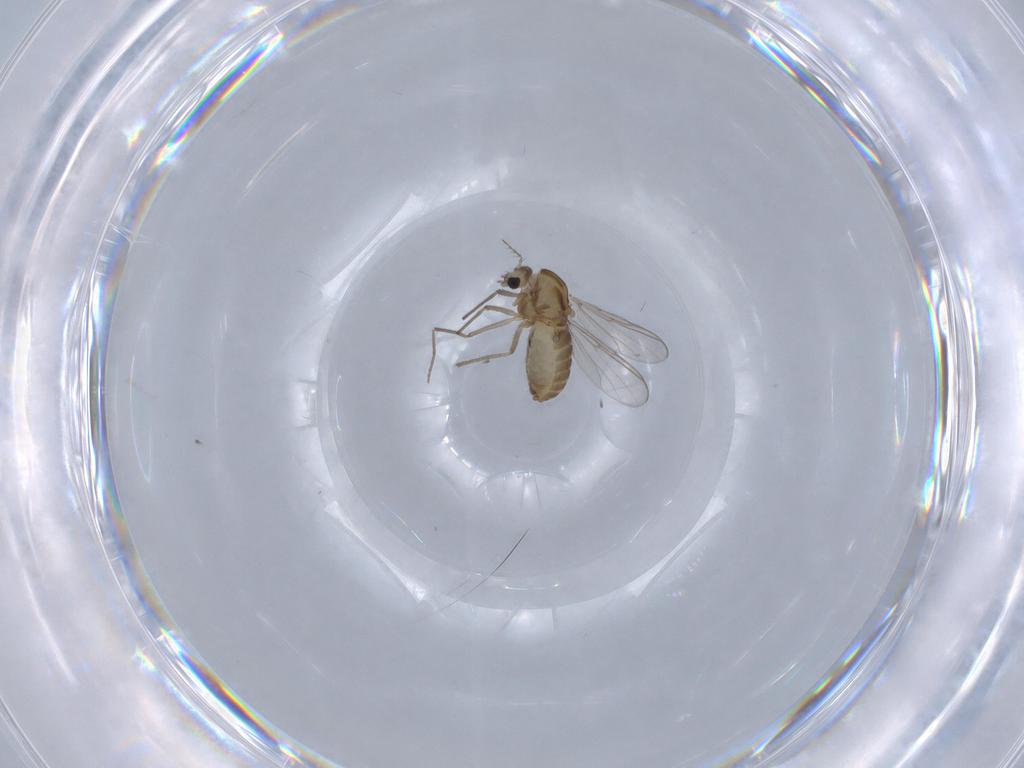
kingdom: Animalia
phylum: Arthropoda
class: Insecta
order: Diptera
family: Chironomidae
